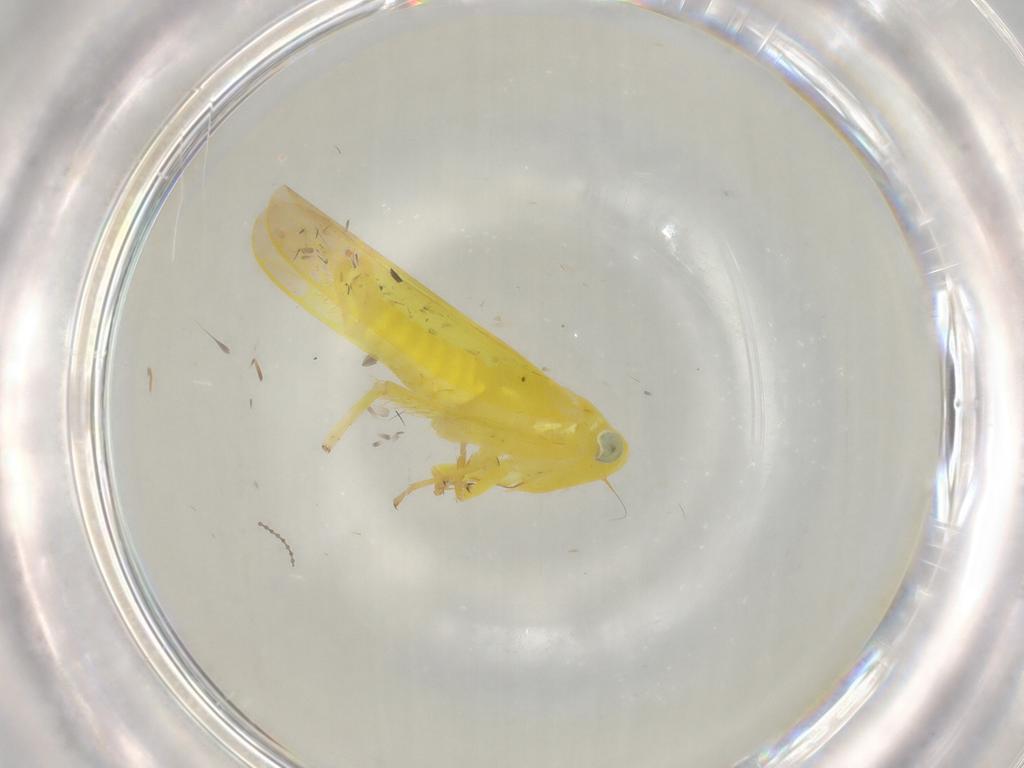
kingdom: Animalia
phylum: Arthropoda
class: Insecta
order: Hemiptera
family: Cicadellidae
